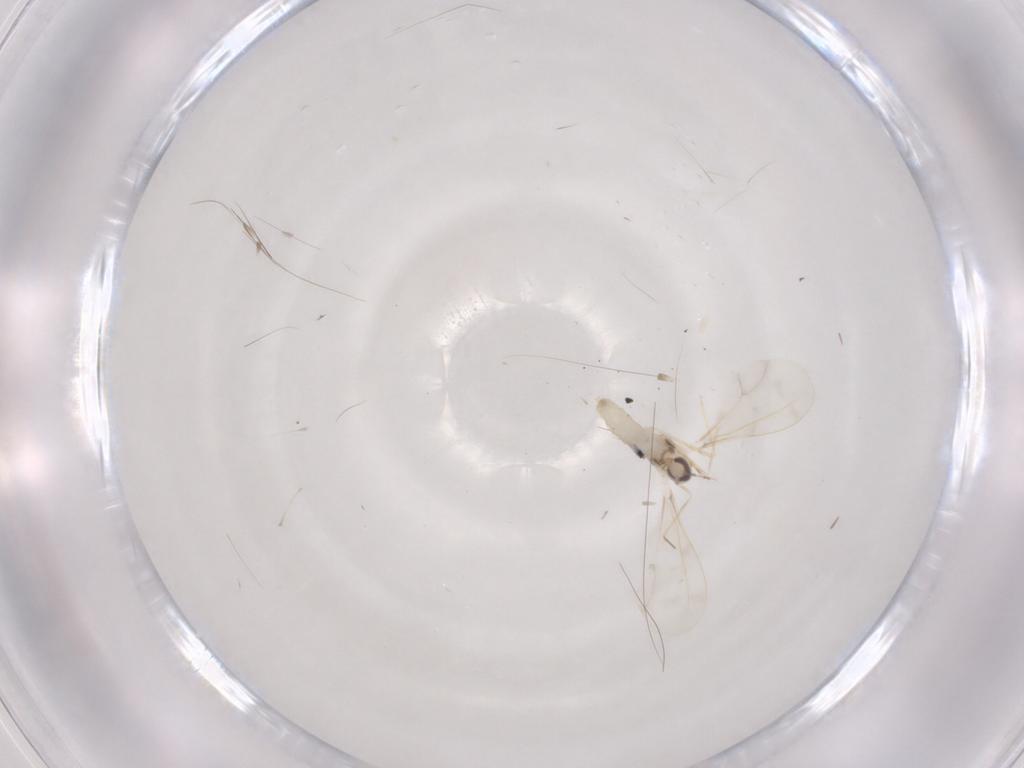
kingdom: Animalia
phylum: Arthropoda
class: Insecta
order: Diptera
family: Cecidomyiidae
